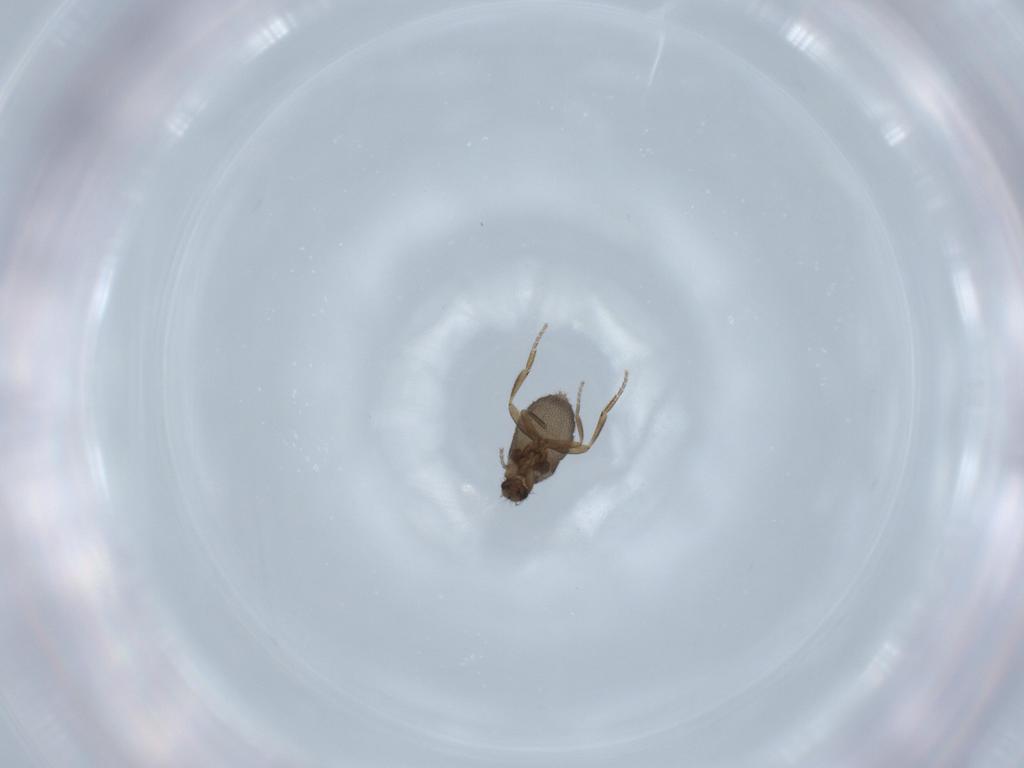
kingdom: Animalia
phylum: Arthropoda
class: Insecta
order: Diptera
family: Phoridae
